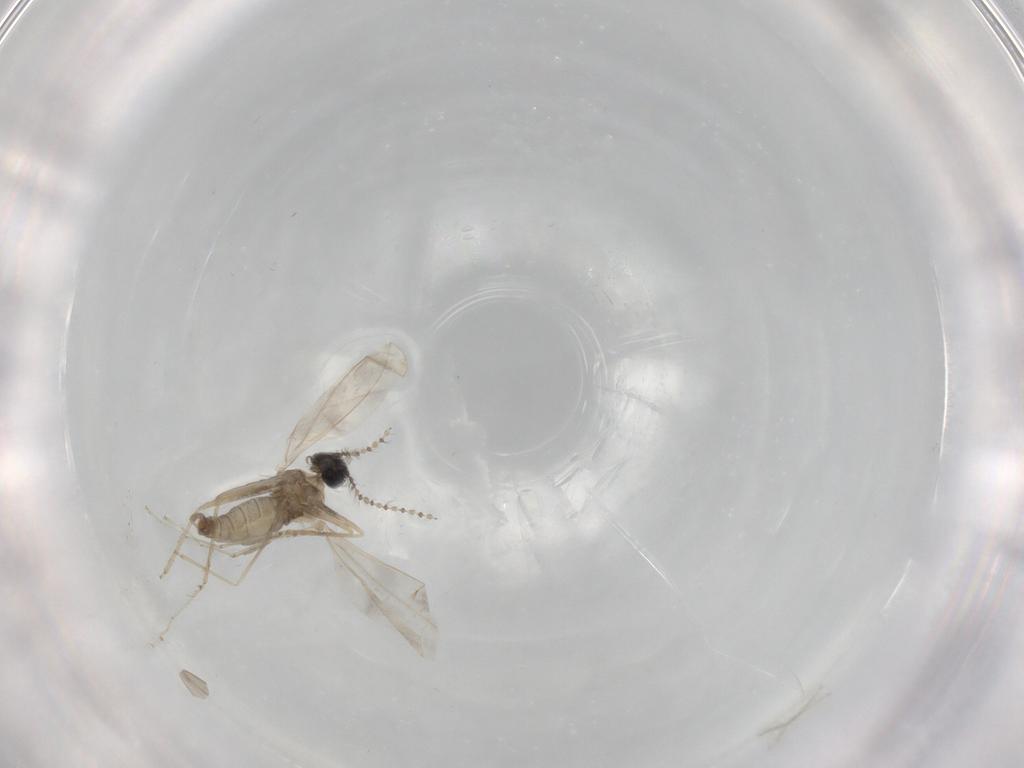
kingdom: Animalia
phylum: Arthropoda
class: Insecta
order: Diptera
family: Cecidomyiidae
